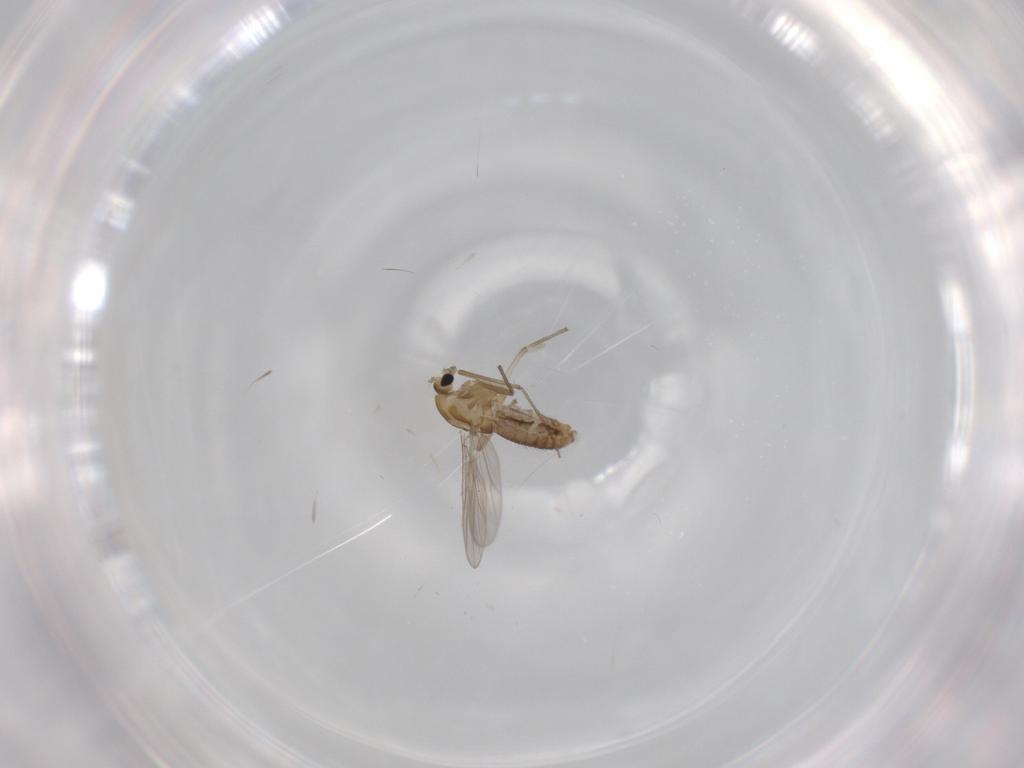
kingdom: Animalia
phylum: Arthropoda
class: Insecta
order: Diptera
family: Chironomidae
